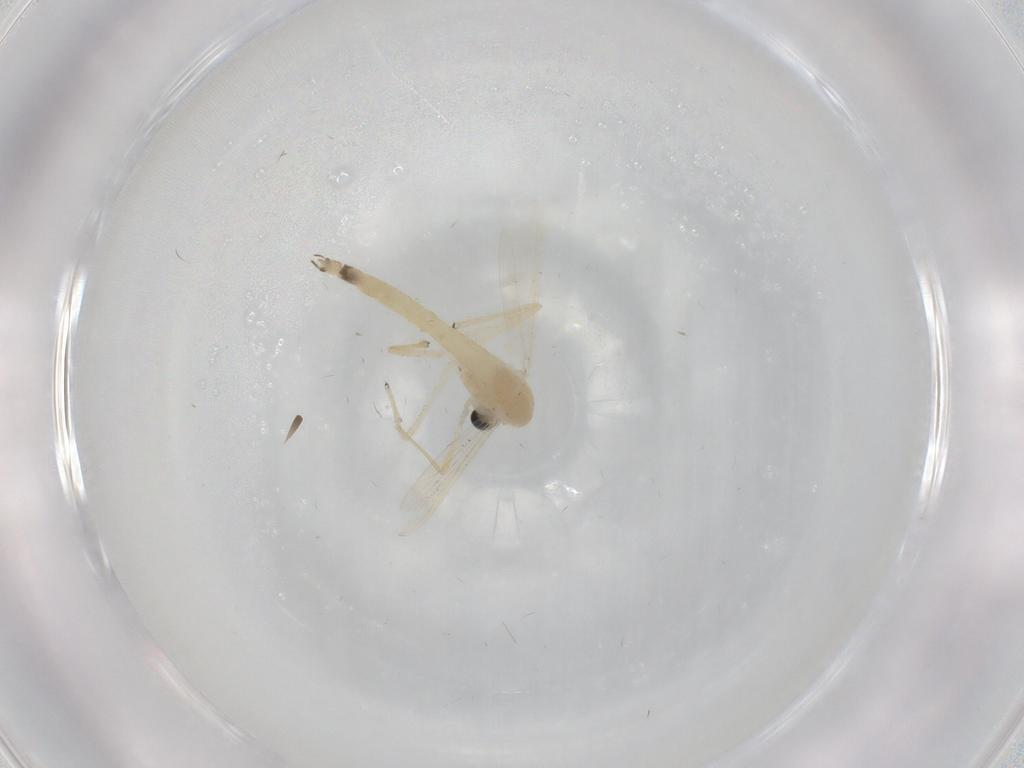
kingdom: Animalia
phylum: Arthropoda
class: Insecta
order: Diptera
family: Chironomidae
